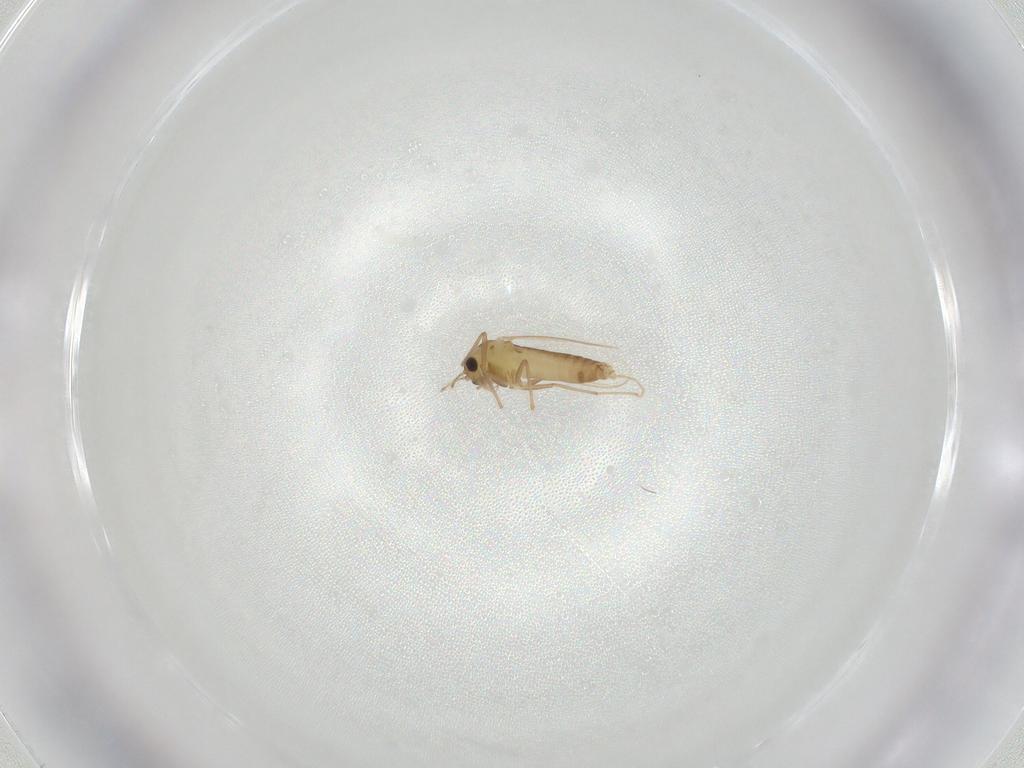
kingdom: Animalia
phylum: Arthropoda
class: Insecta
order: Diptera
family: Chironomidae
